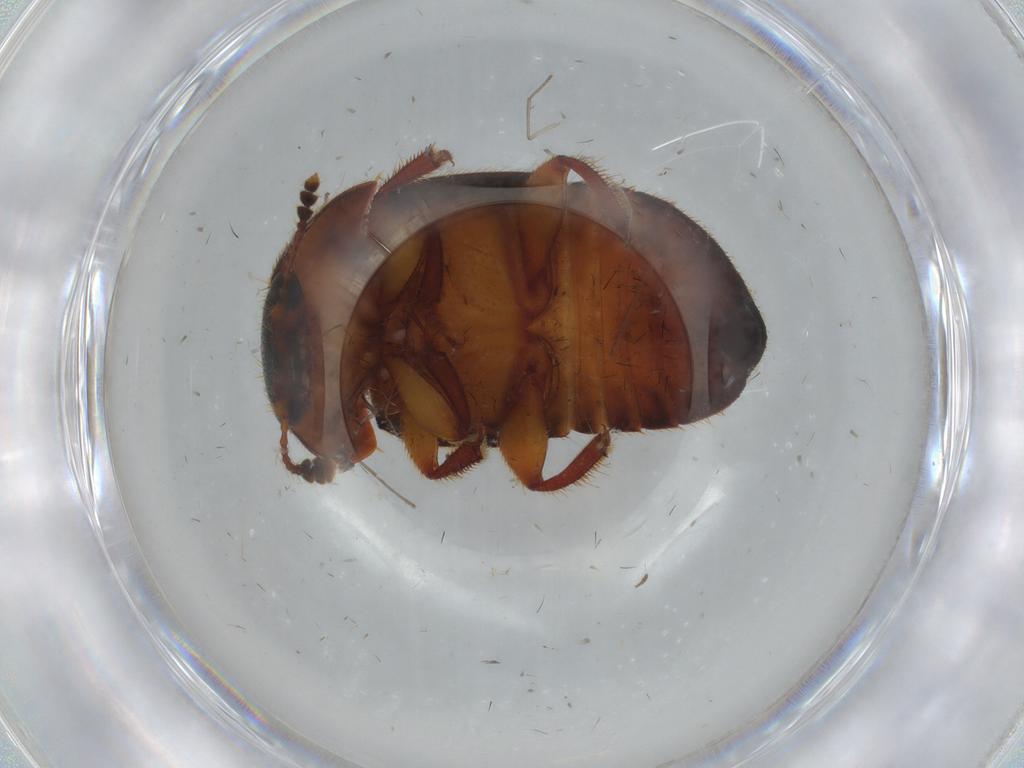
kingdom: Animalia
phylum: Arthropoda
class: Insecta
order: Coleoptera
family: Nitidulidae
